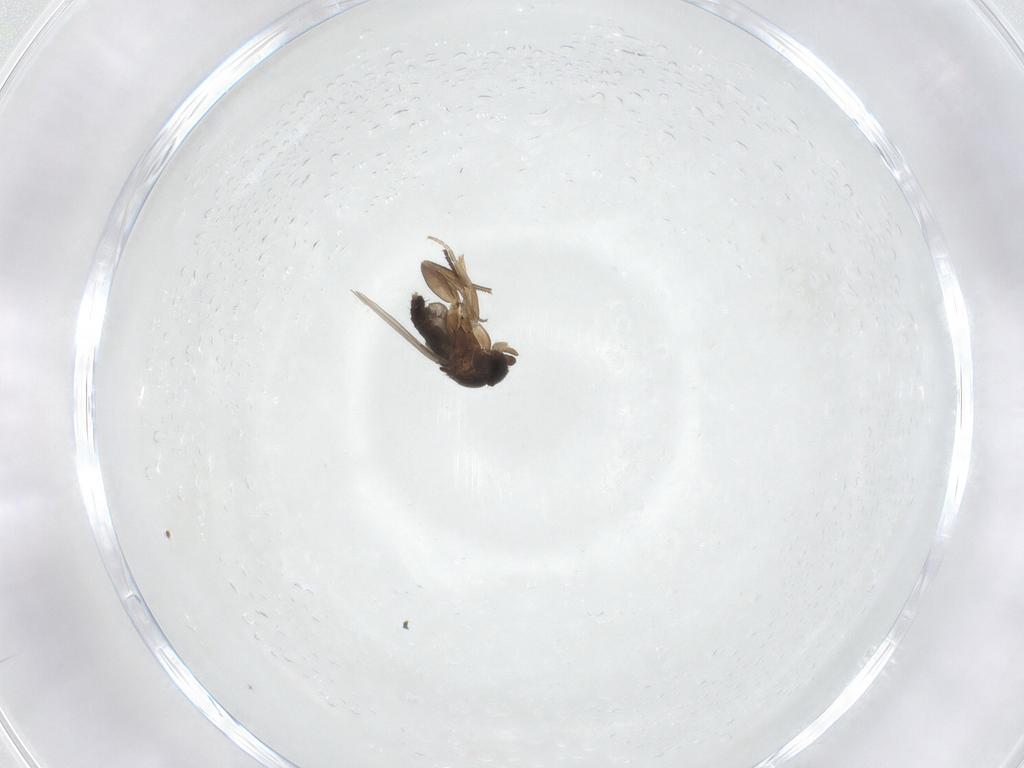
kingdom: Animalia
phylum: Arthropoda
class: Insecta
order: Diptera
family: Phoridae
